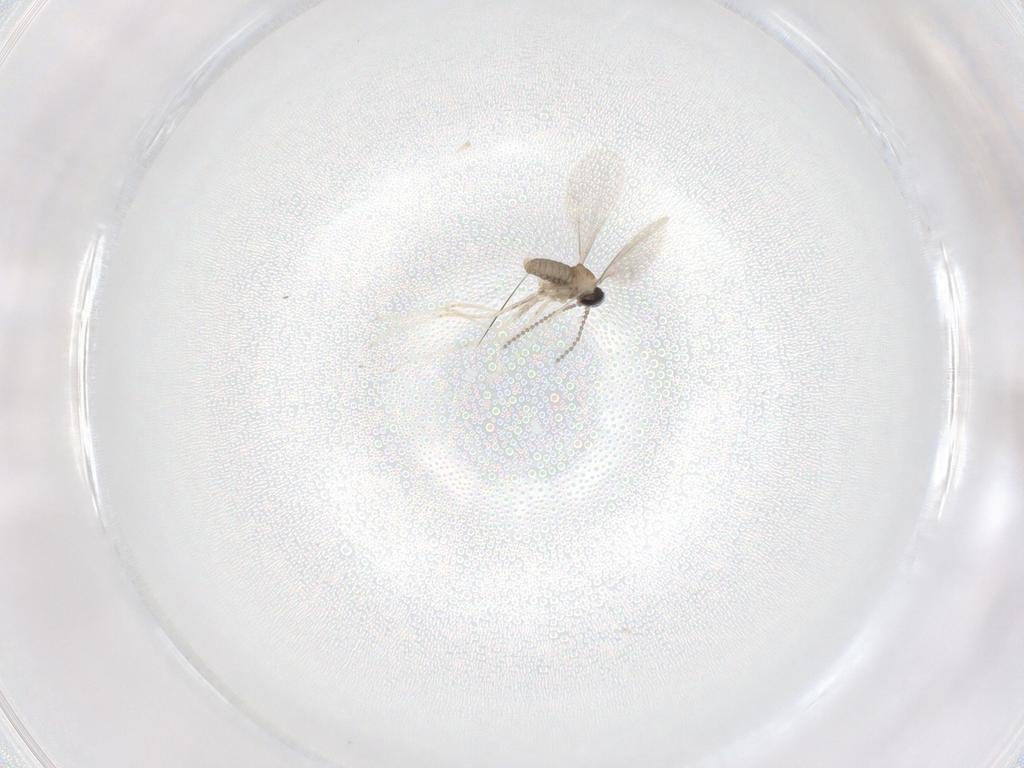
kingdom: Animalia
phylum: Arthropoda
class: Insecta
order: Diptera
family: Cecidomyiidae
